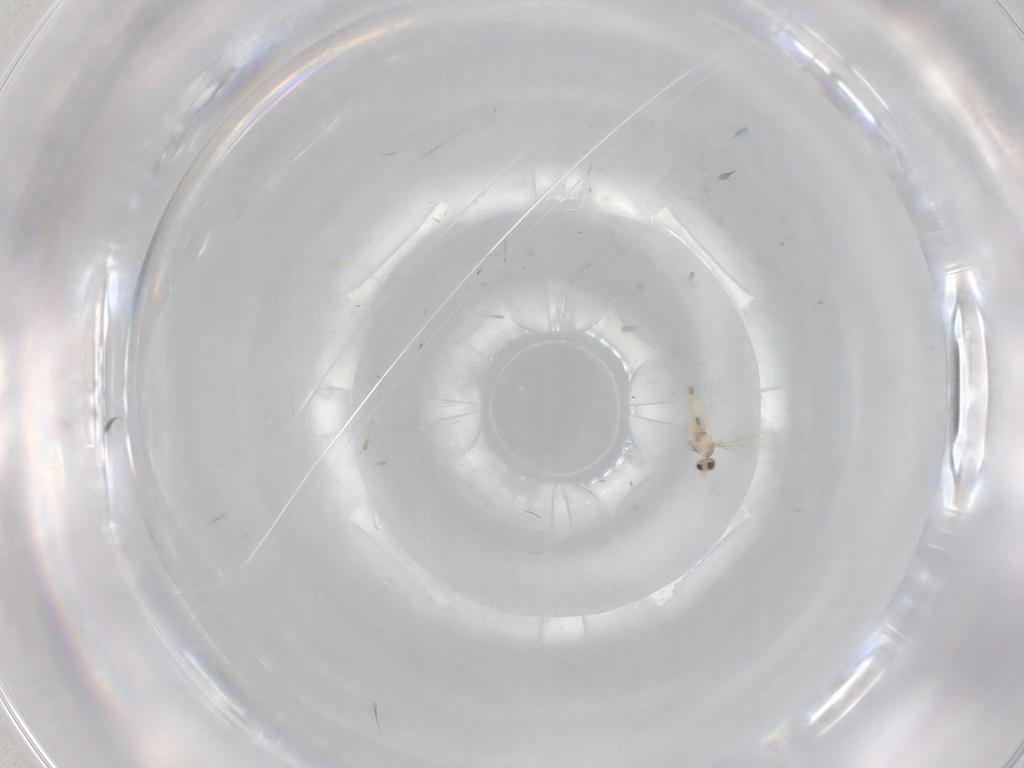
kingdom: Animalia
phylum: Arthropoda
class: Insecta
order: Diptera
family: Cecidomyiidae
